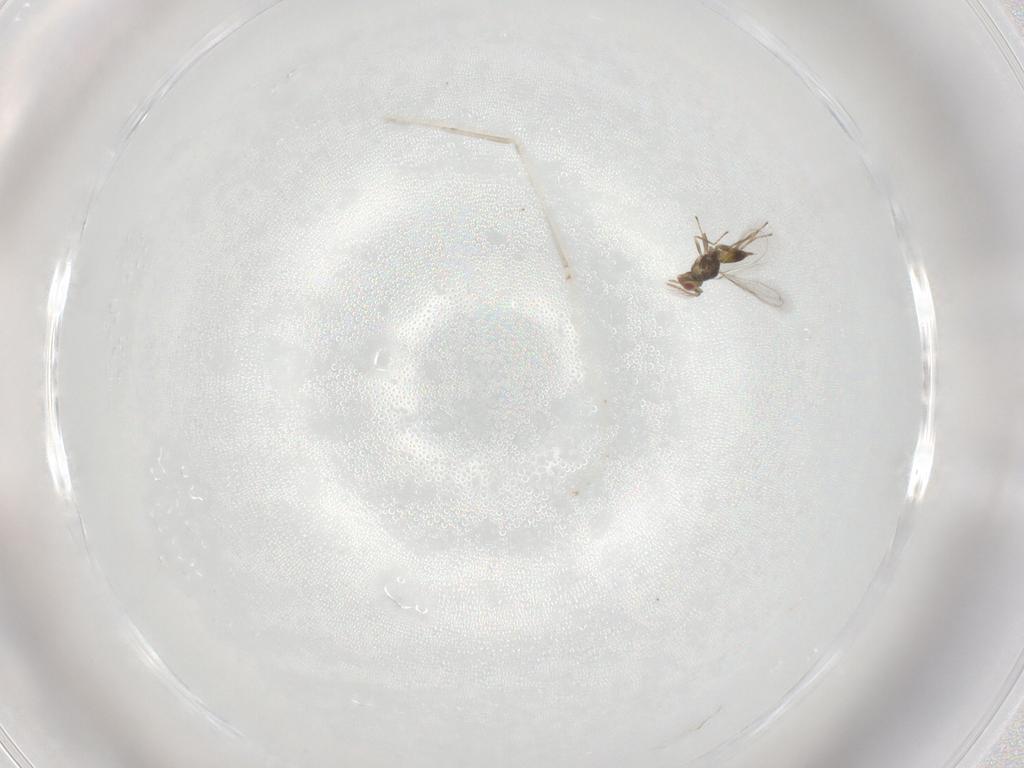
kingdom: Animalia
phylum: Arthropoda
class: Insecta
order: Hymenoptera
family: Eulophidae
